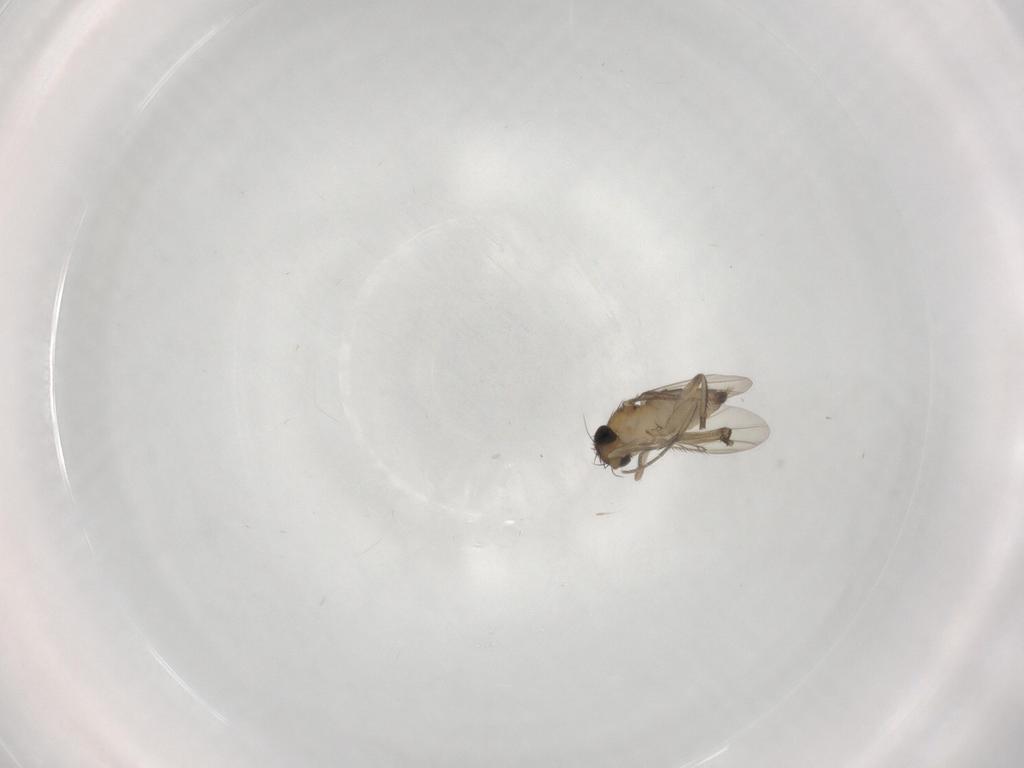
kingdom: Animalia
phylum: Arthropoda
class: Insecta
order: Diptera
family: Phoridae
